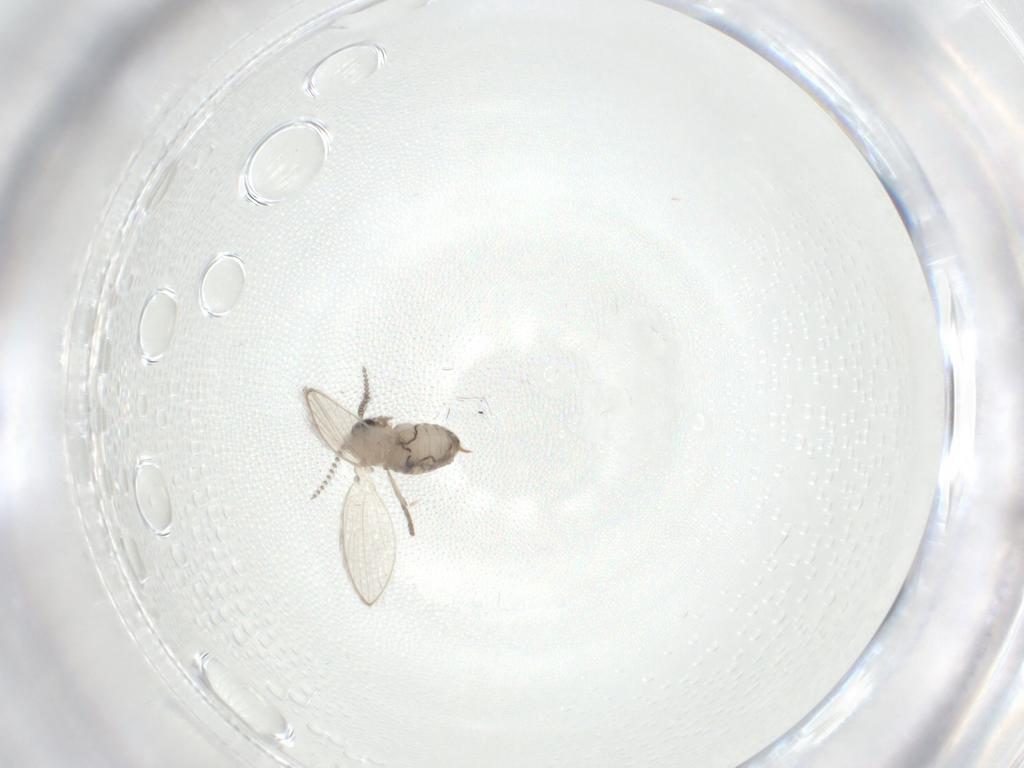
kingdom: Animalia
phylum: Arthropoda
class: Insecta
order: Diptera
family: Psychodidae
